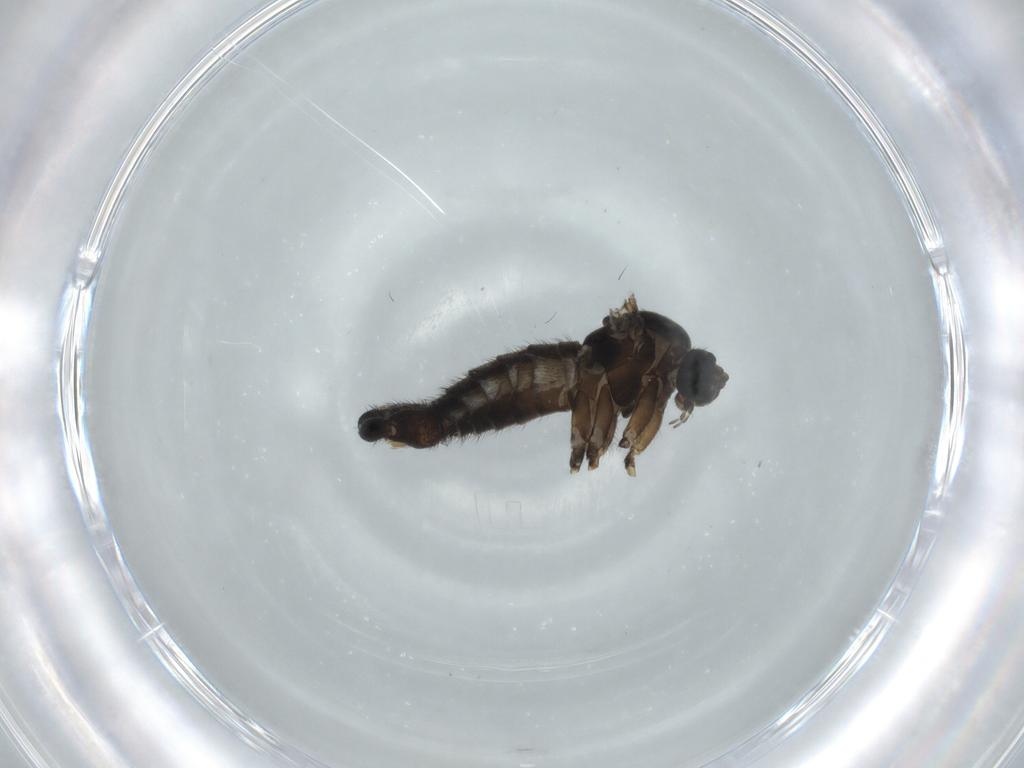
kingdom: Animalia
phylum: Arthropoda
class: Insecta
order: Diptera
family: Sciaridae
